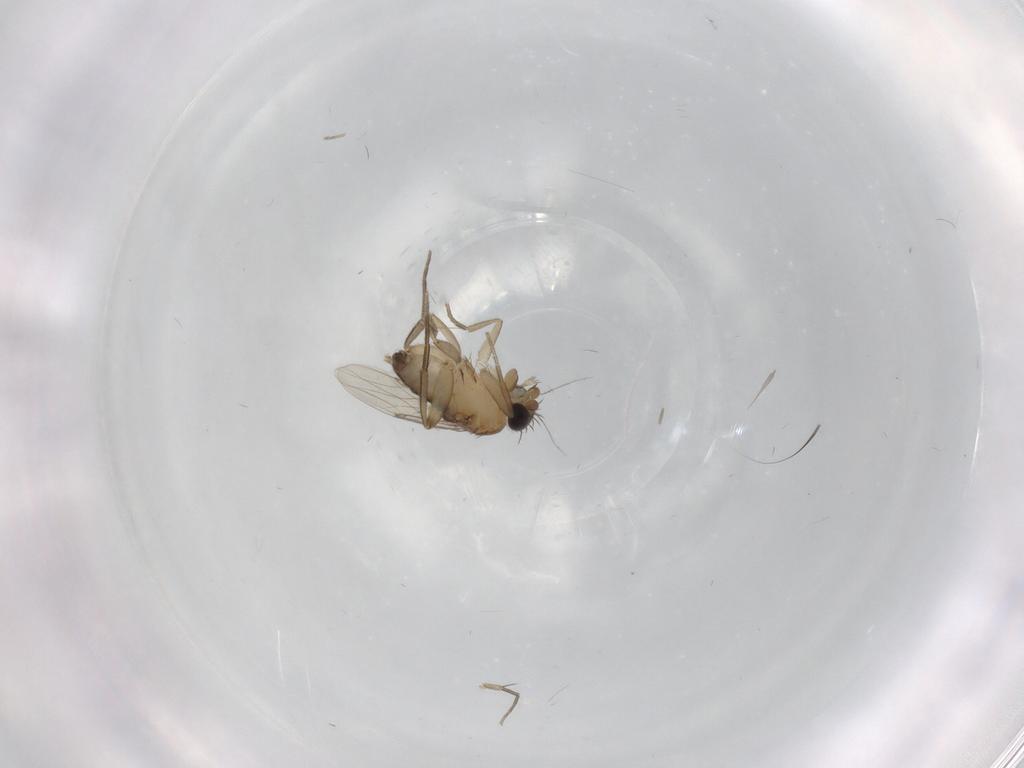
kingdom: Animalia
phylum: Arthropoda
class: Insecta
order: Diptera
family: Phoridae
